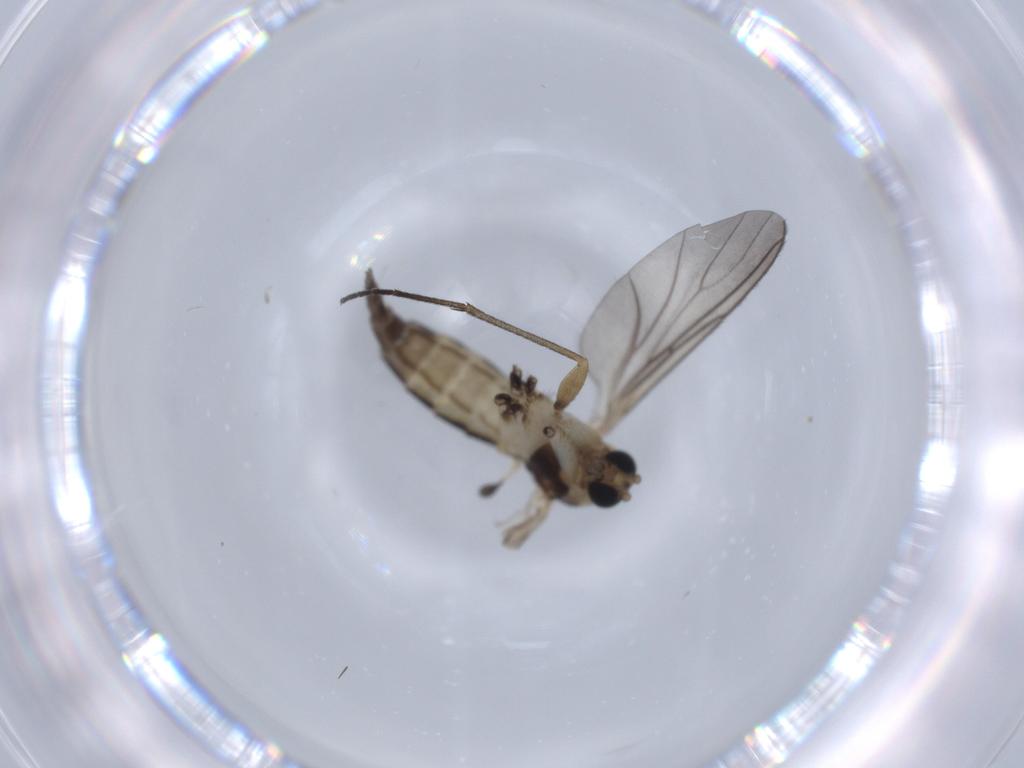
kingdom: Animalia
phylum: Arthropoda
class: Insecta
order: Diptera
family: Sciaridae
